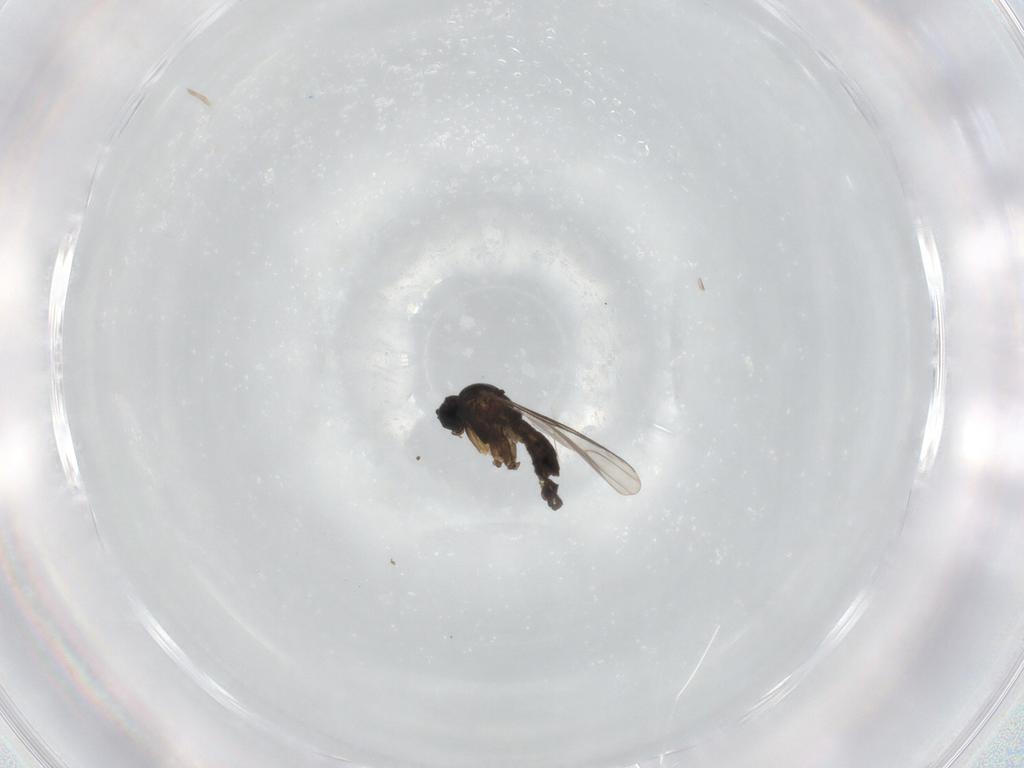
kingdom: Animalia
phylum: Arthropoda
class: Insecta
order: Diptera
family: Sciaridae
